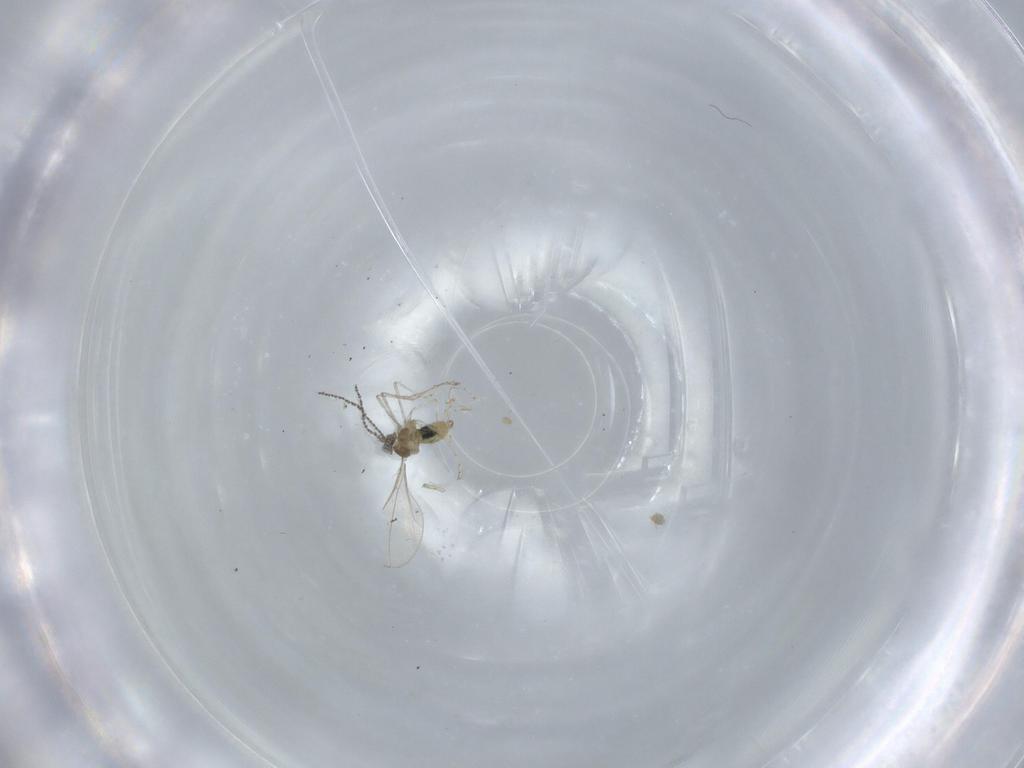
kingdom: Animalia
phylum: Arthropoda
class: Insecta
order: Diptera
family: Cecidomyiidae
